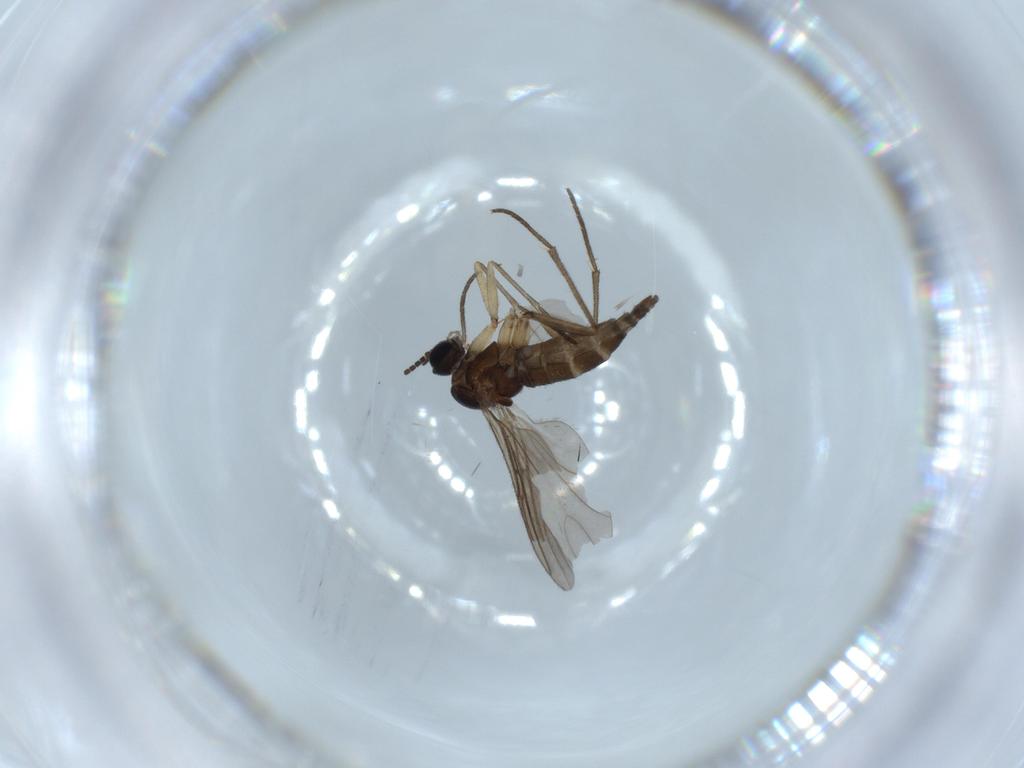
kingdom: Animalia
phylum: Arthropoda
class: Insecta
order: Diptera
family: Sciaridae
